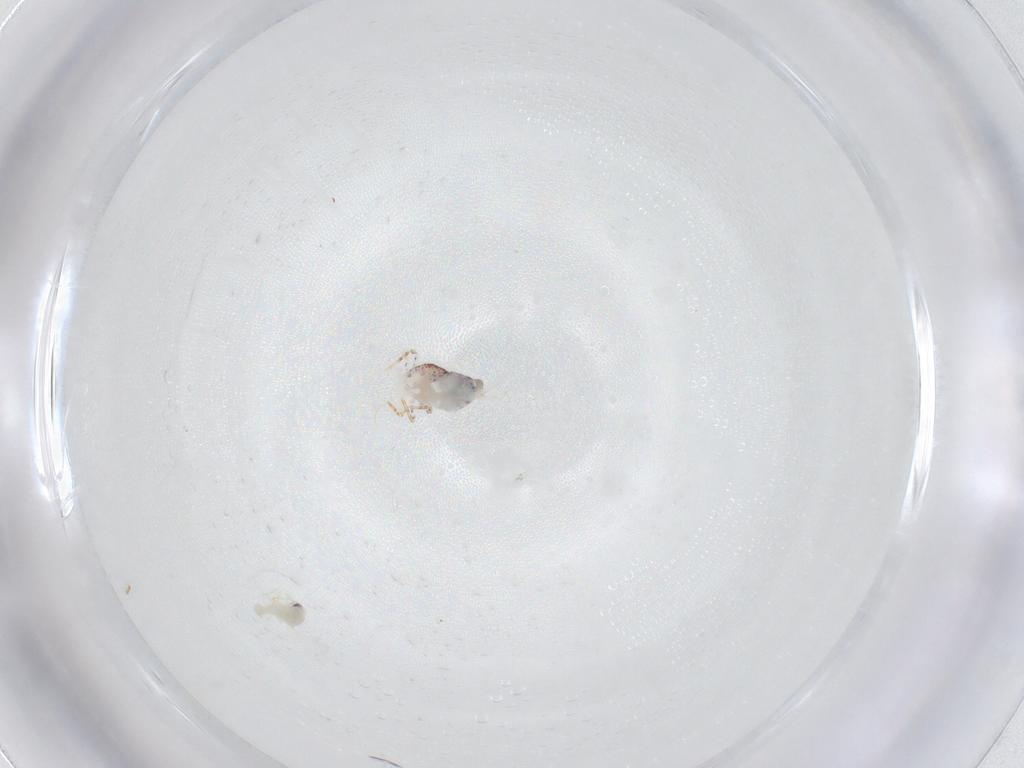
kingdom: Animalia
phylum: Arthropoda
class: Collembola
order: Symphypleona
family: Bourletiellidae
